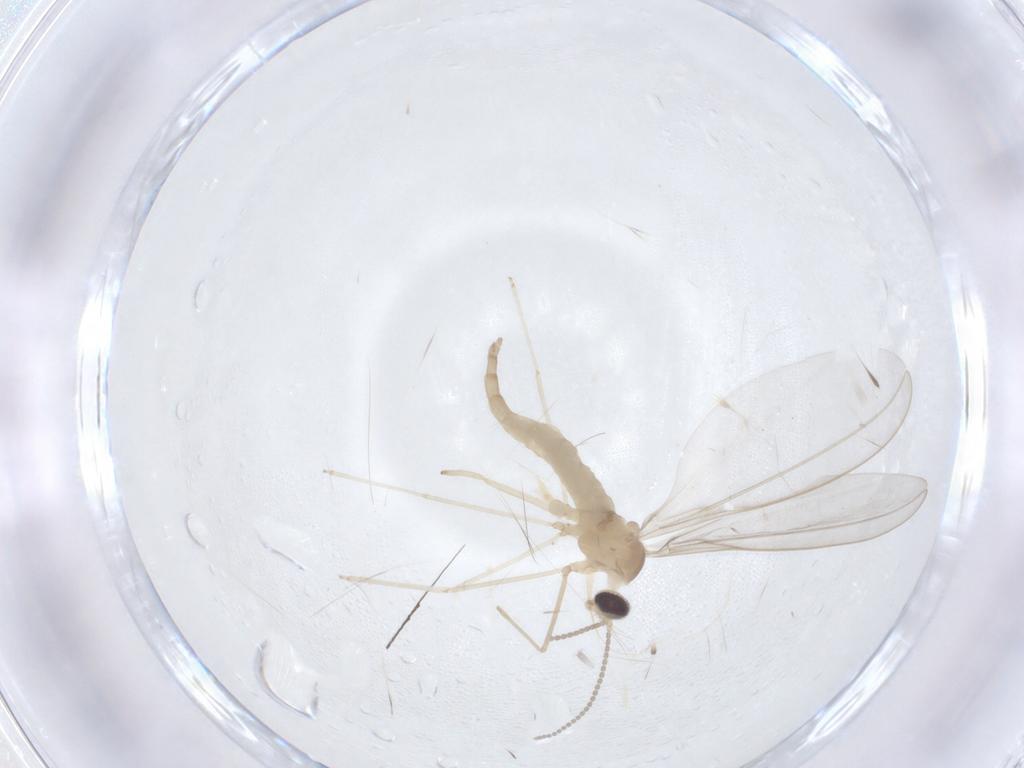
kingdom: Animalia
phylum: Arthropoda
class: Insecta
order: Diptera
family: Cecidomyiidae
